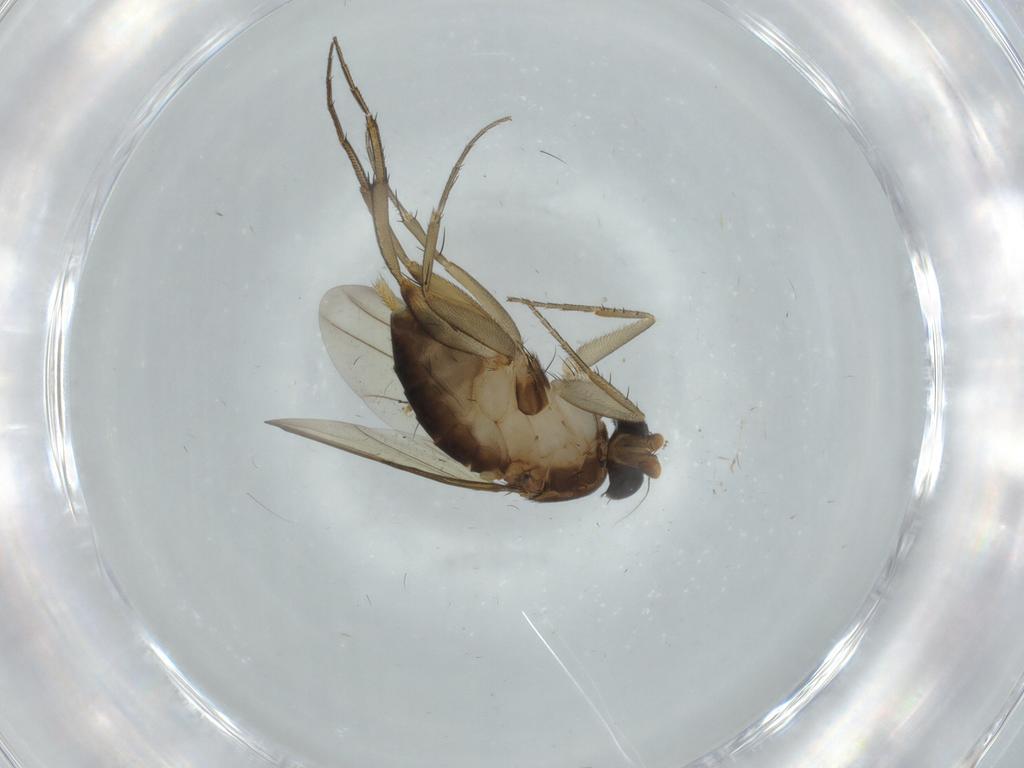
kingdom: Animalia
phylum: Arthropoda
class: Insecta
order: Diptera
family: Phoridae
